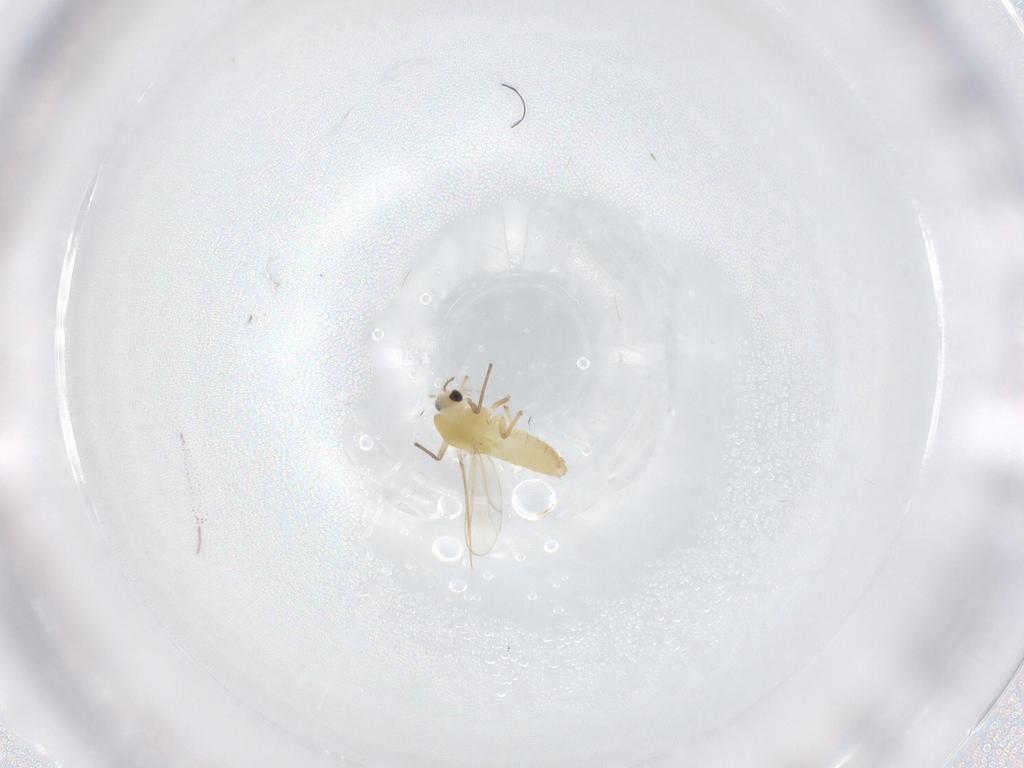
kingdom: Animalia
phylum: Arthropoda
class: Insecta
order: Diptera
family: Chironomidae
